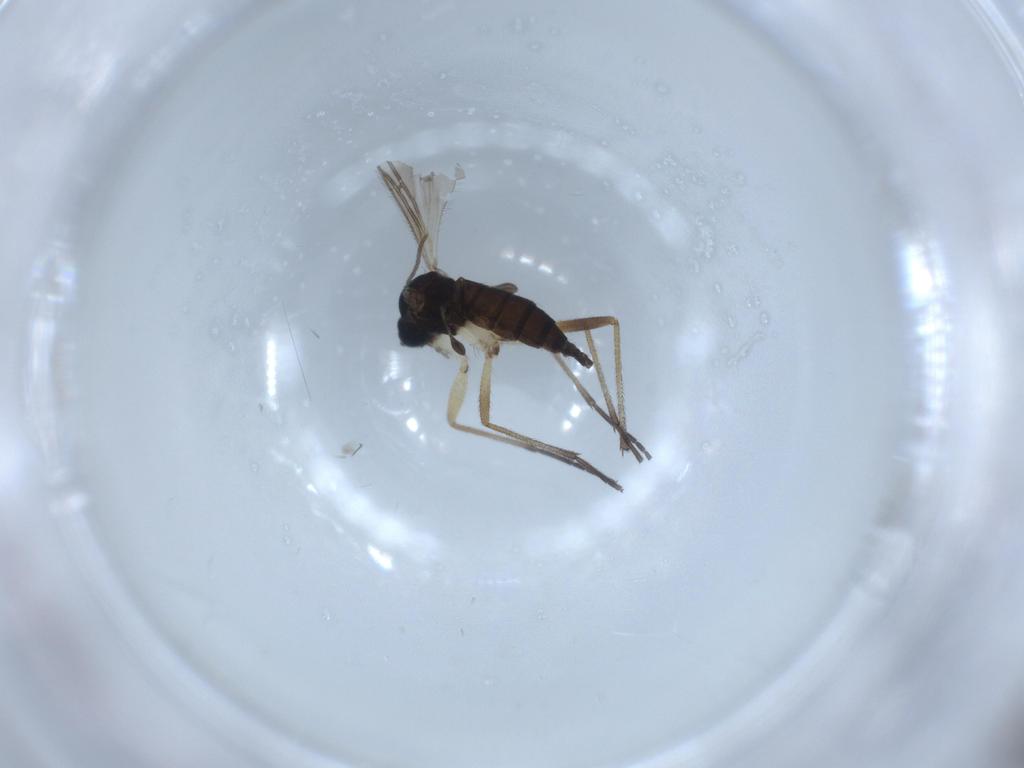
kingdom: Animalia
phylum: Arthropoda
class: Insecta
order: Diptera
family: Sciaridae
